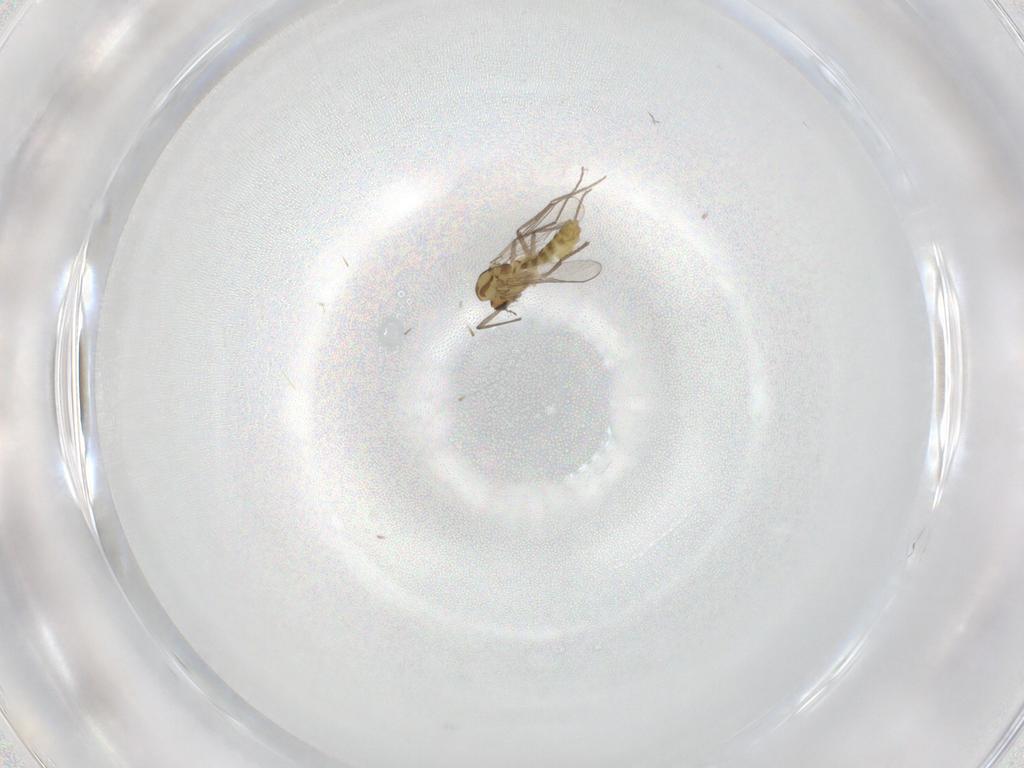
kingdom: Animalia
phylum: Arthropoda
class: Insecta
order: Diptera
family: Chironomidae
